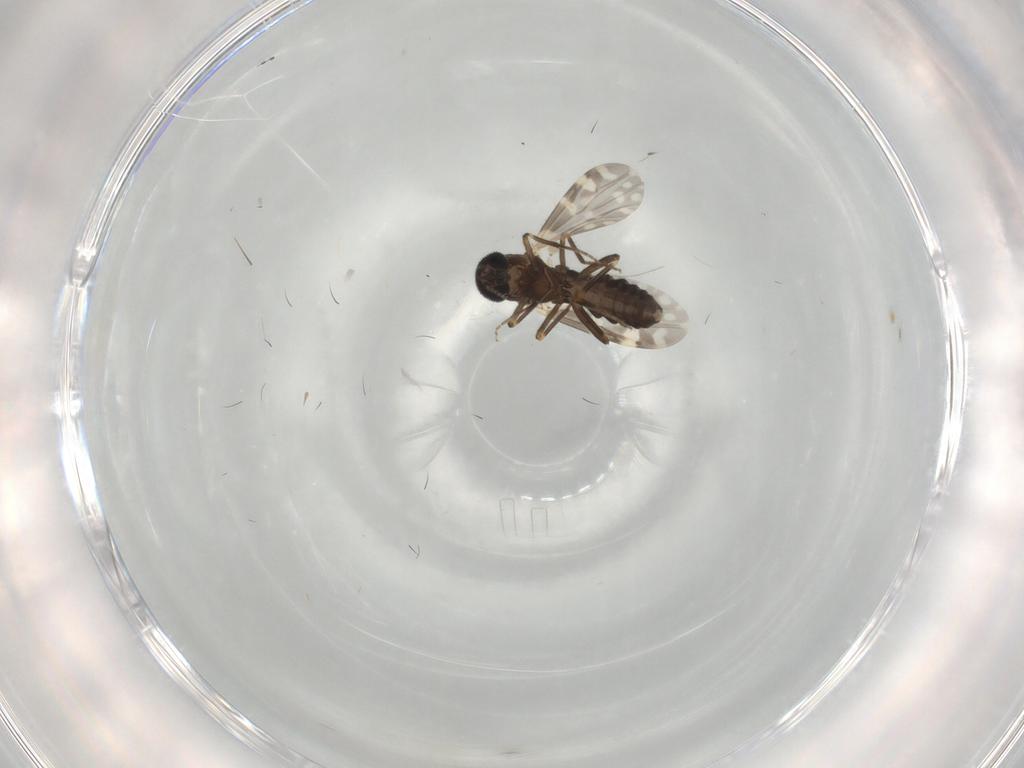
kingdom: Animalia
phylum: Arthropoda
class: Insecta
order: Diptera
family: Ceratopogonidae
